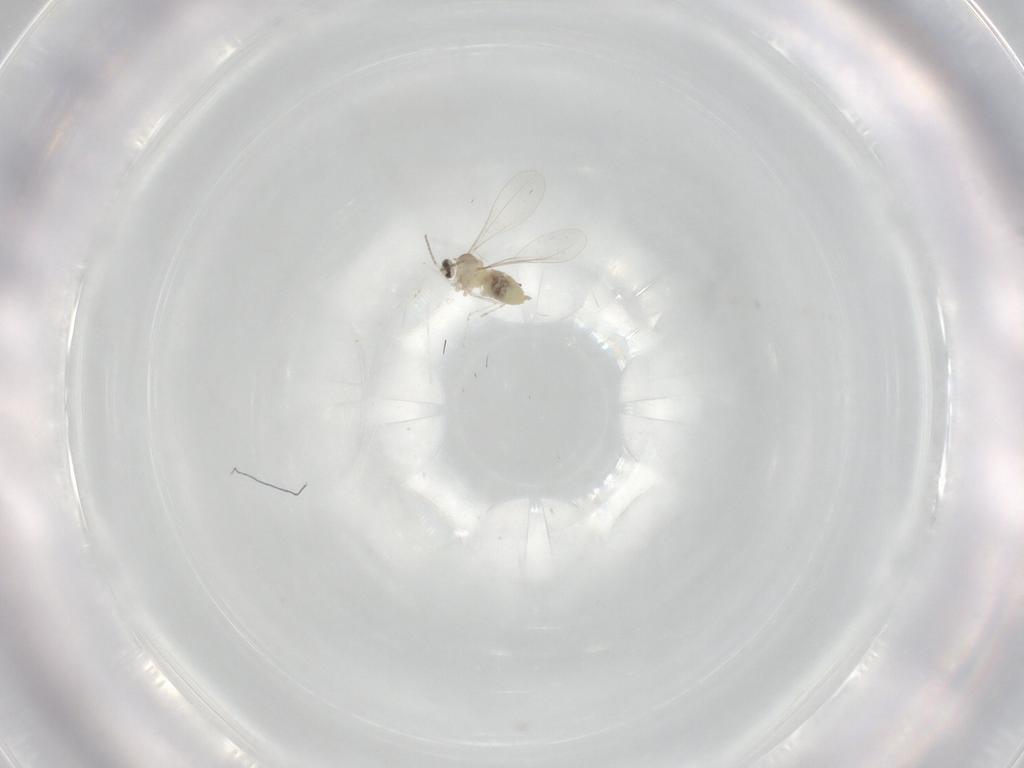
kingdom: Animalia
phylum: Arthropoda
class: Insecta
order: Diptera
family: Cecidomyiidae
